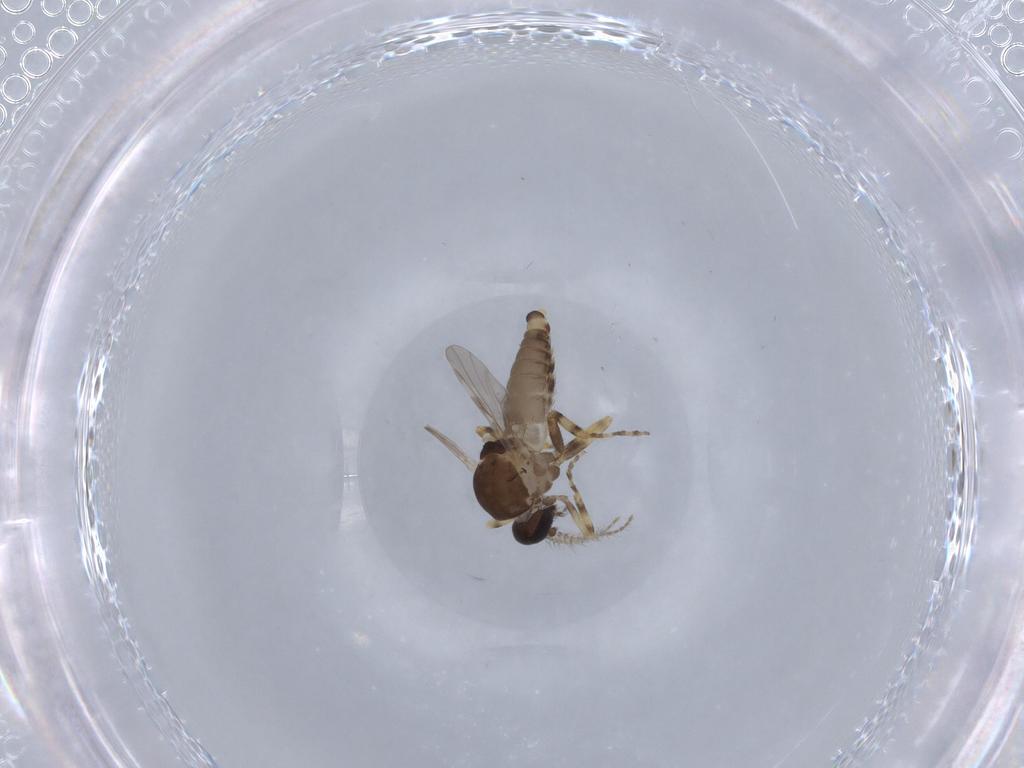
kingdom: Animalia
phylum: Arthropoda
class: Insecta
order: Diptera
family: Ceratopogonidae
